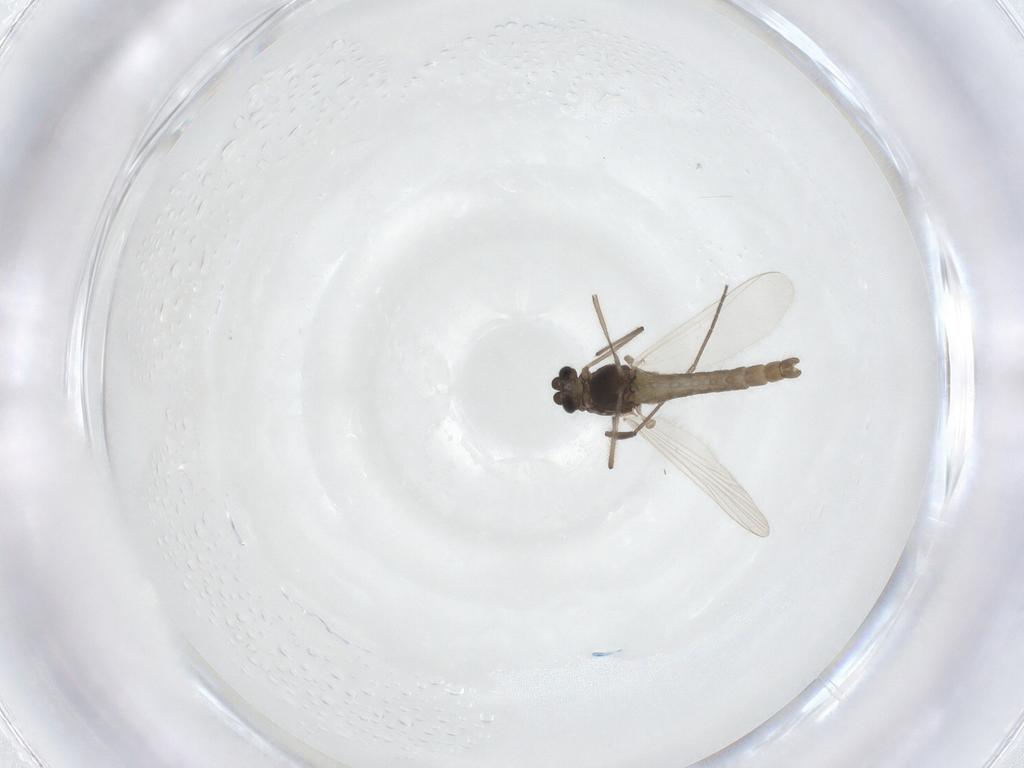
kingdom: Animalia
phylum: Arthropoda
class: Insecta
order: Diptera
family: Chironomidae
